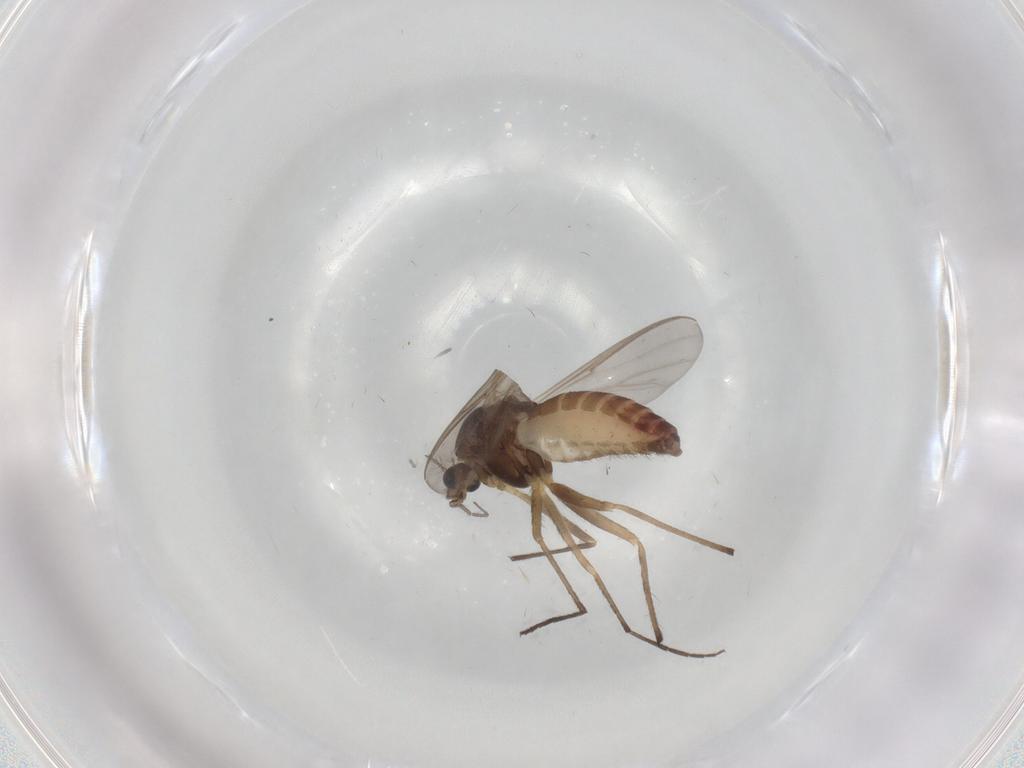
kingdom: Animalia
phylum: Arthropoda
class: Insecta
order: Diptera
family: Chironomidae
